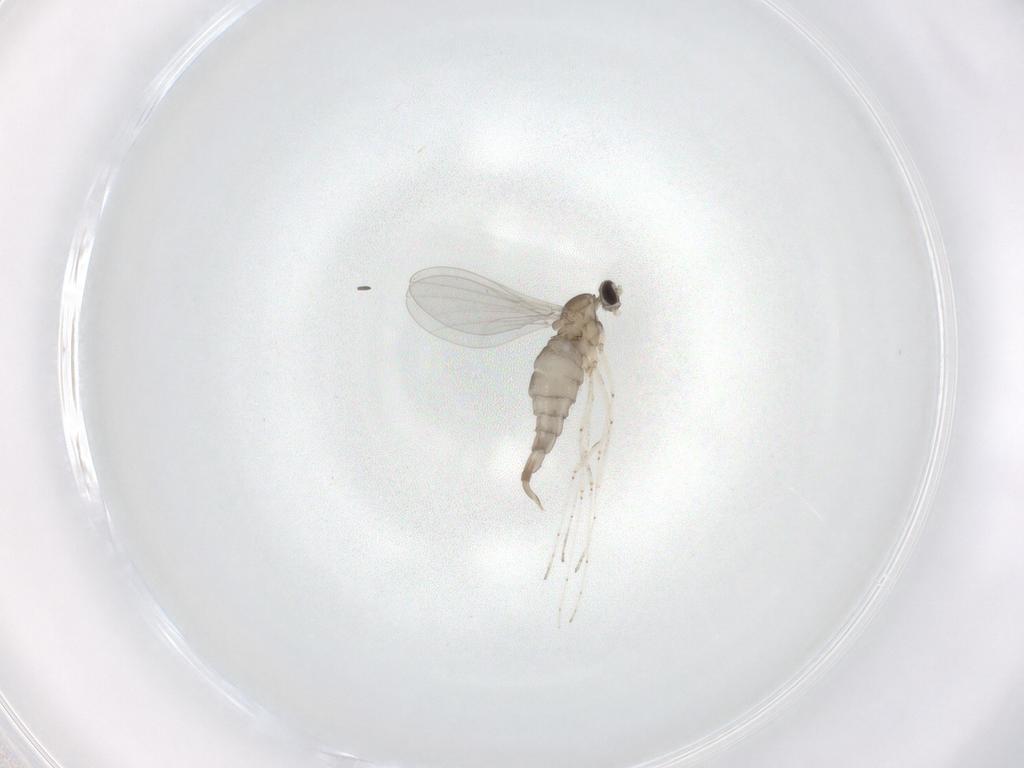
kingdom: Animalia
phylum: Arthropoda
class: Insecta
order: Diptera
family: Cecidomyiidae
